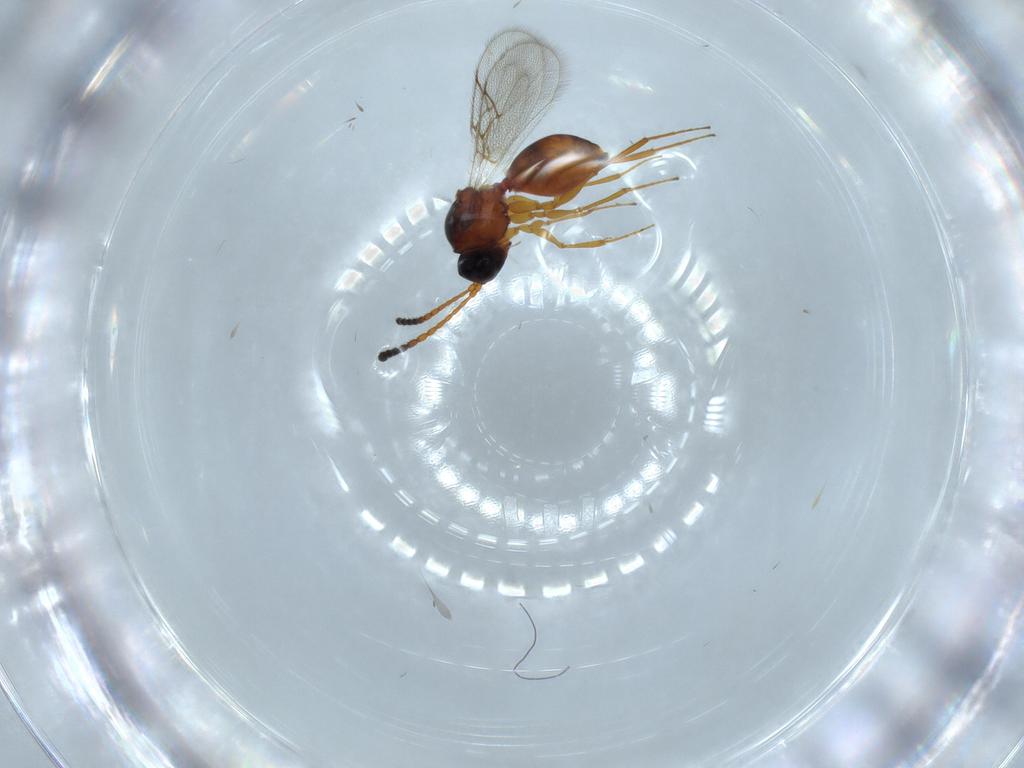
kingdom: Animalia
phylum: Arthropoda
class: Insecta
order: Hymenoptera
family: Figitidae
